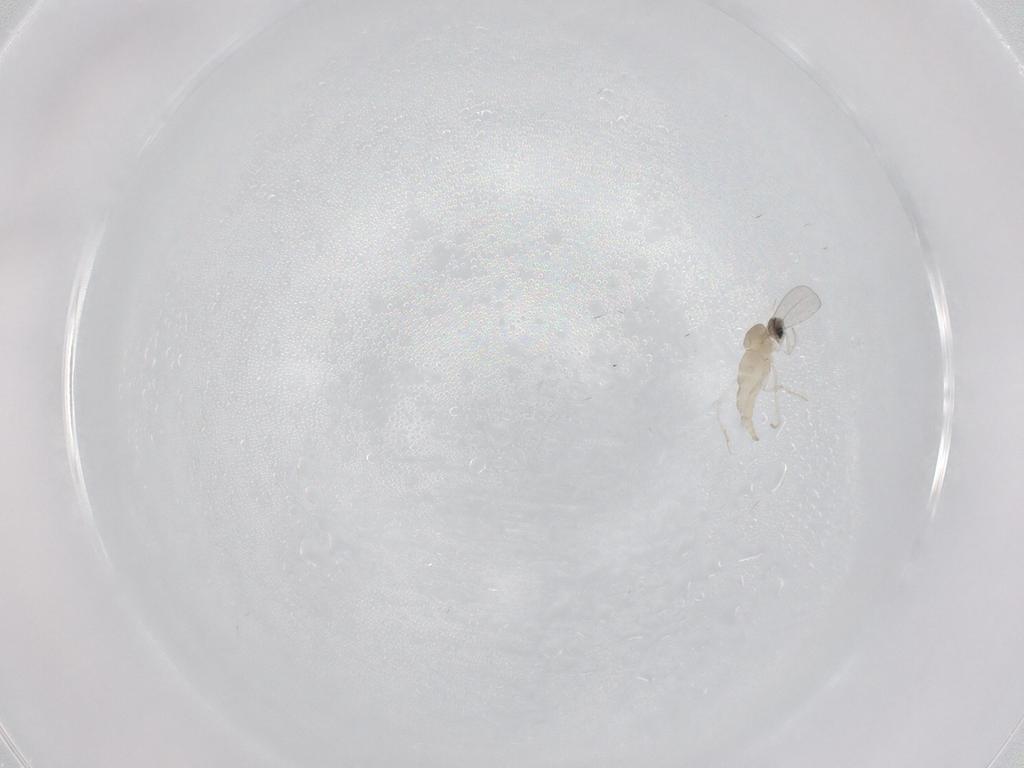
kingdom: Animalia
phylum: Arthropoda
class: Insecta
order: Diptera
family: Cecidomyiidae
